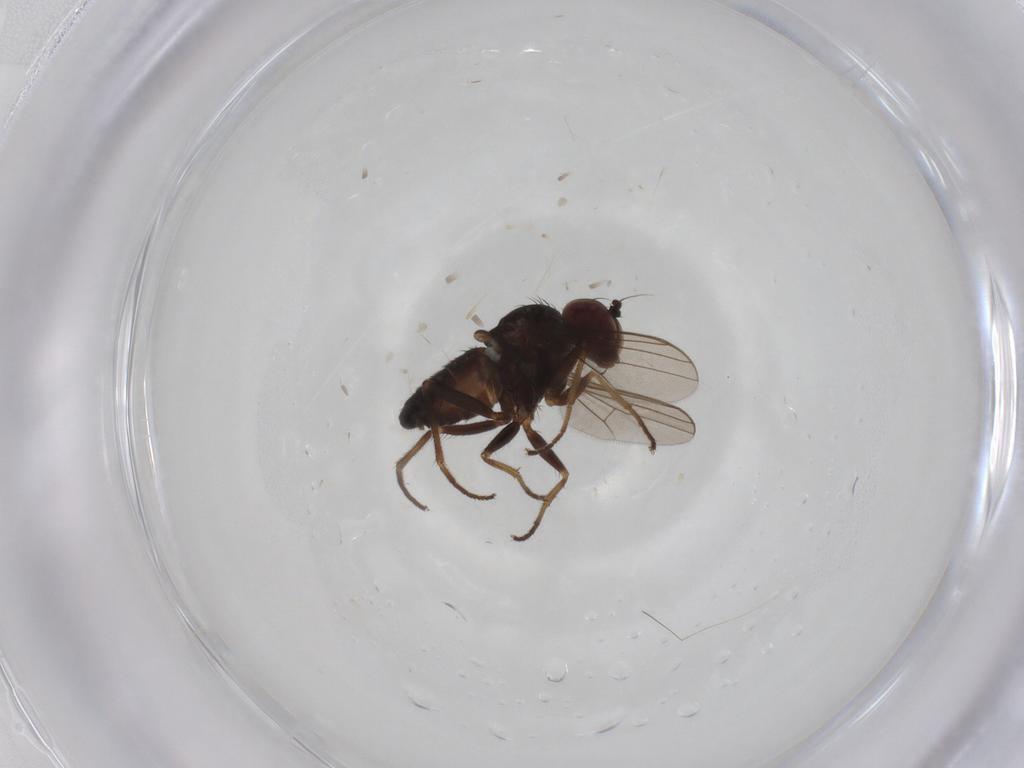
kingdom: Animalia
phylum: Arthropoda
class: Insecta
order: Diptera
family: Dolichopodidae
